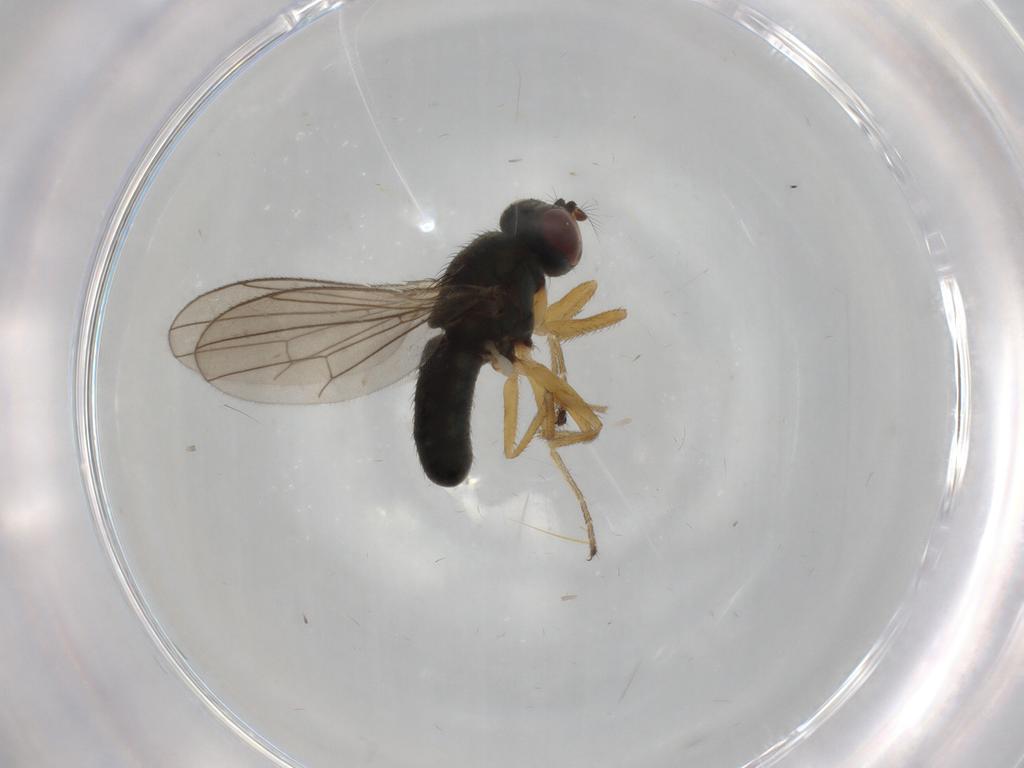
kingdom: Animalia
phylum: Arthropoda
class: Insecta
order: Diptera
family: Ephydridae
